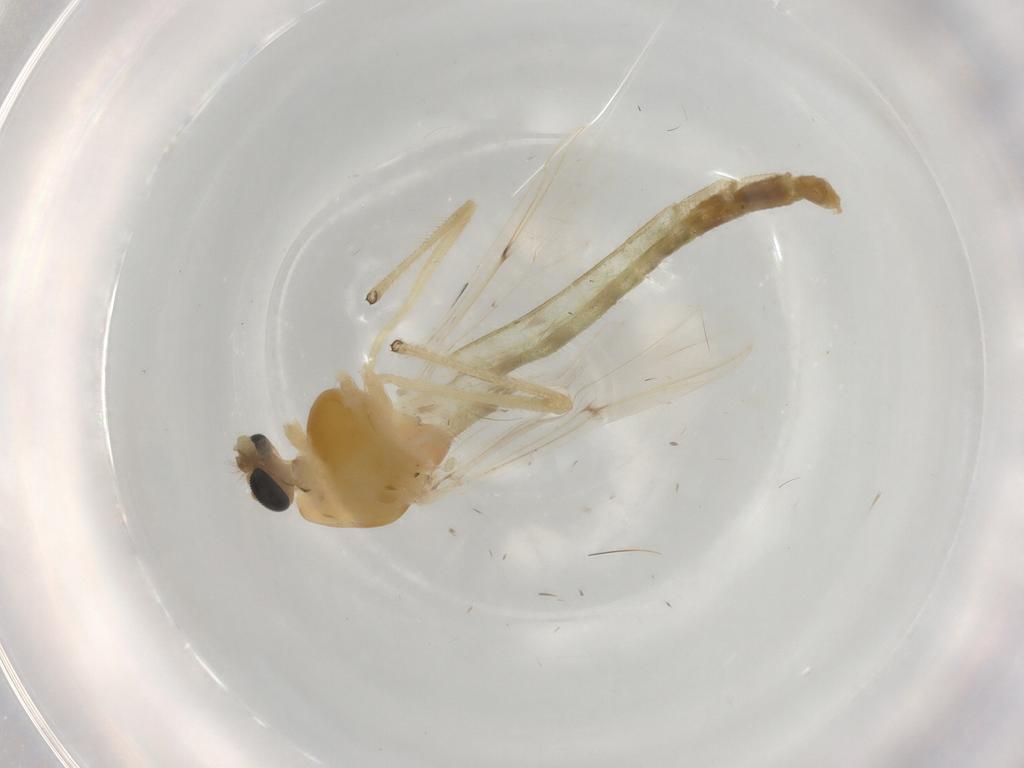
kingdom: Animalia
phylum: Arthropoda
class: Insecta
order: Diptera
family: Chironomidae
